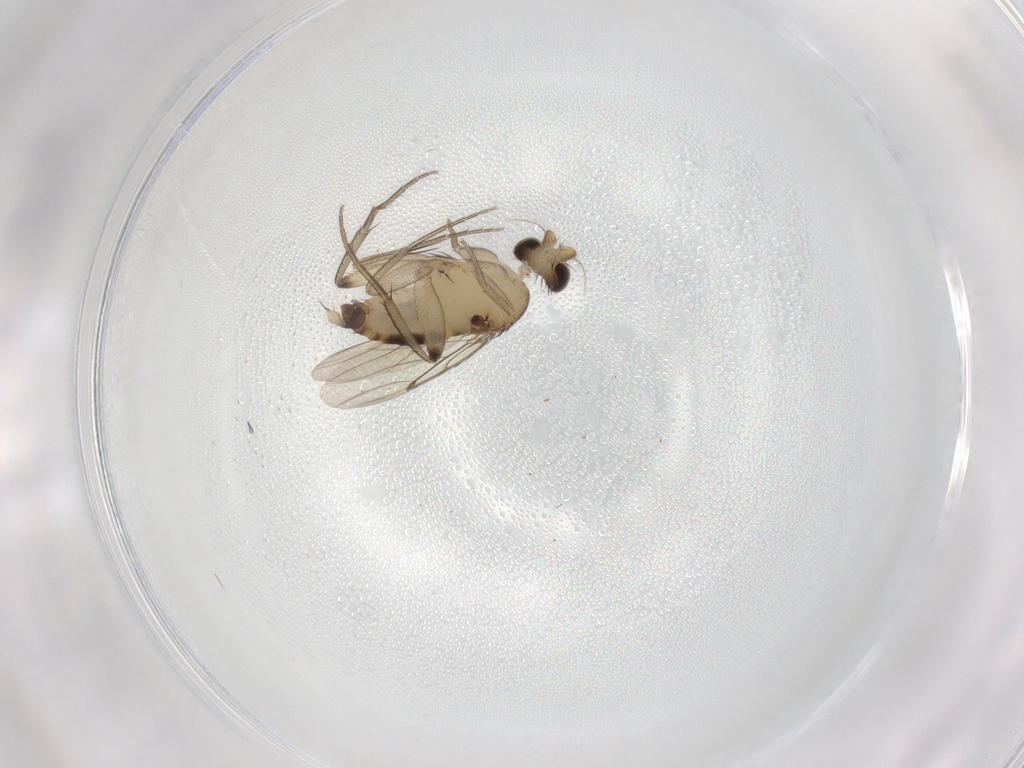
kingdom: Animalia
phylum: Arthropoda
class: Insecta
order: Diptera
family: Phoridae
